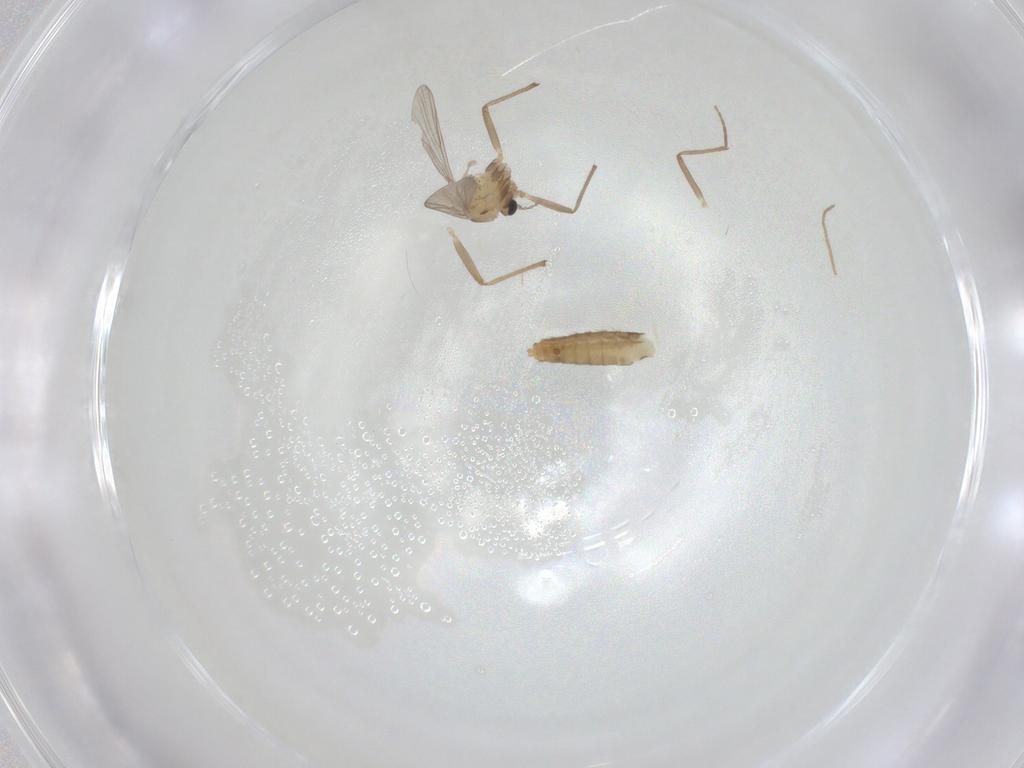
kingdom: Animalia
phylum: Arthropoda
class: Insecta
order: Diptera
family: Chironomidae
